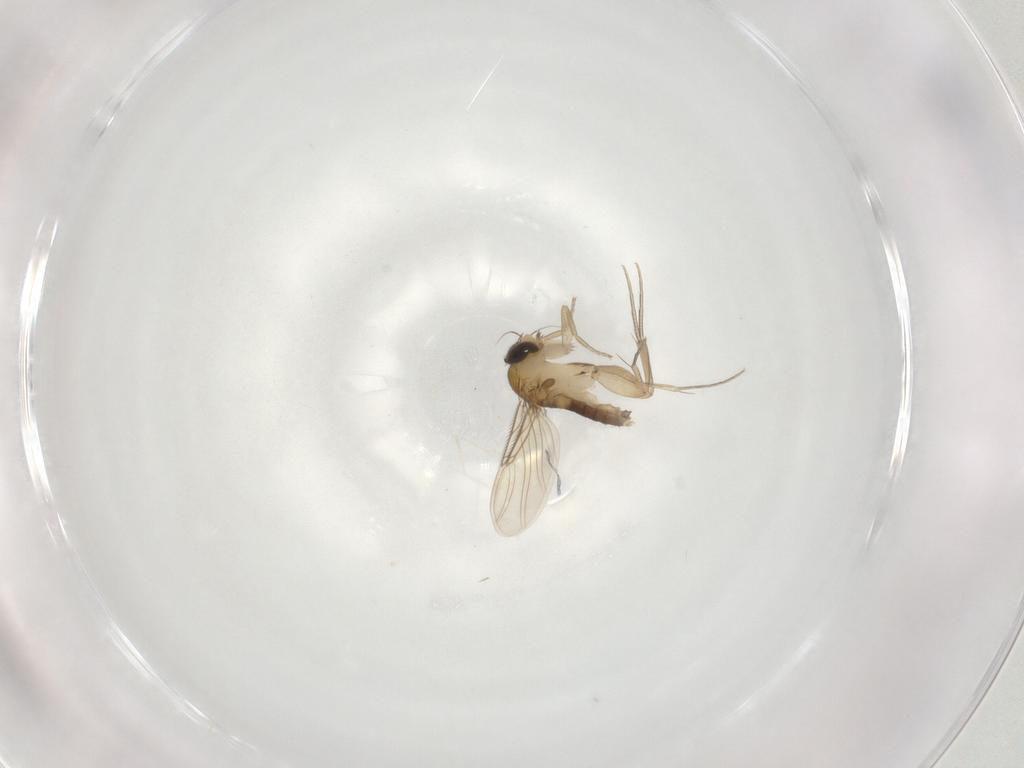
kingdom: Animalia
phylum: Arthropoda
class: Insecta
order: Diptera
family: Phoridae
